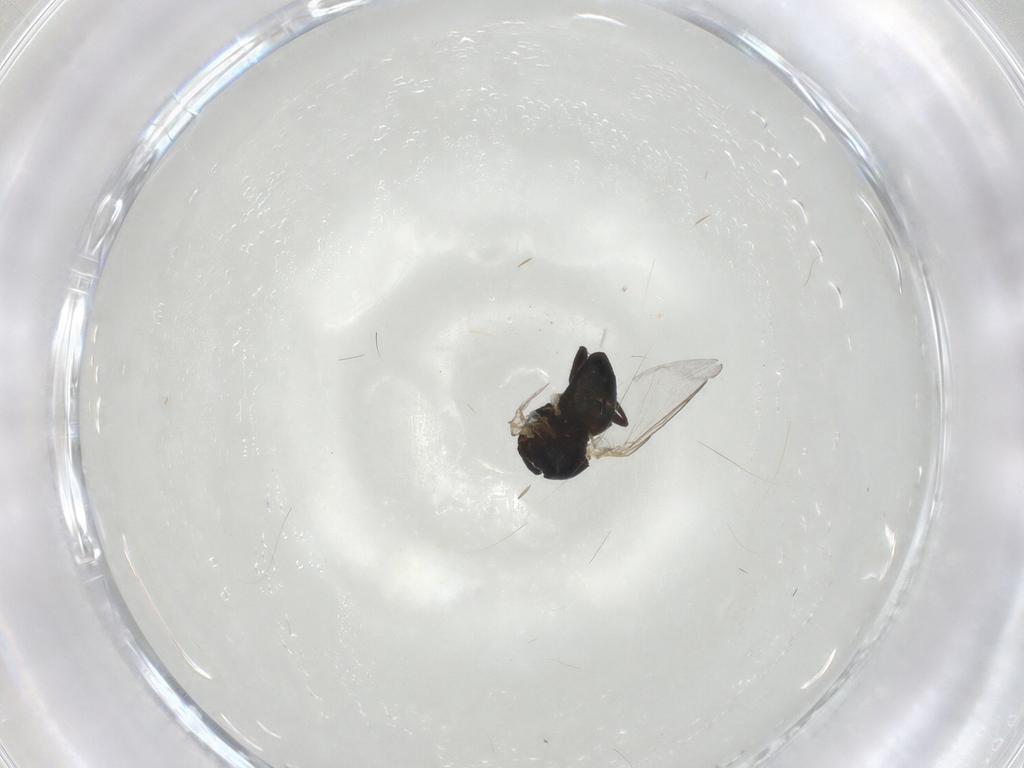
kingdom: Animalia
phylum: Arthropoda
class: Insecta
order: Diptera
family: Agromyzidae
